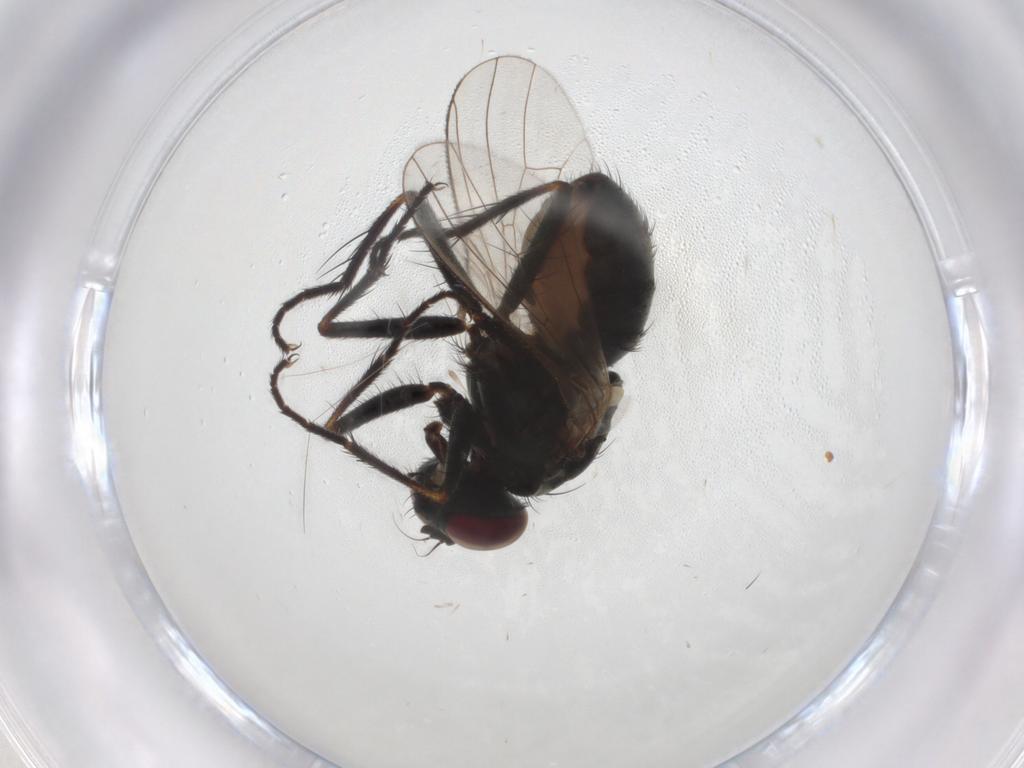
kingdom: Animalia
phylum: Arthropoda
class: Insecta
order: Diptera
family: Muscidae
